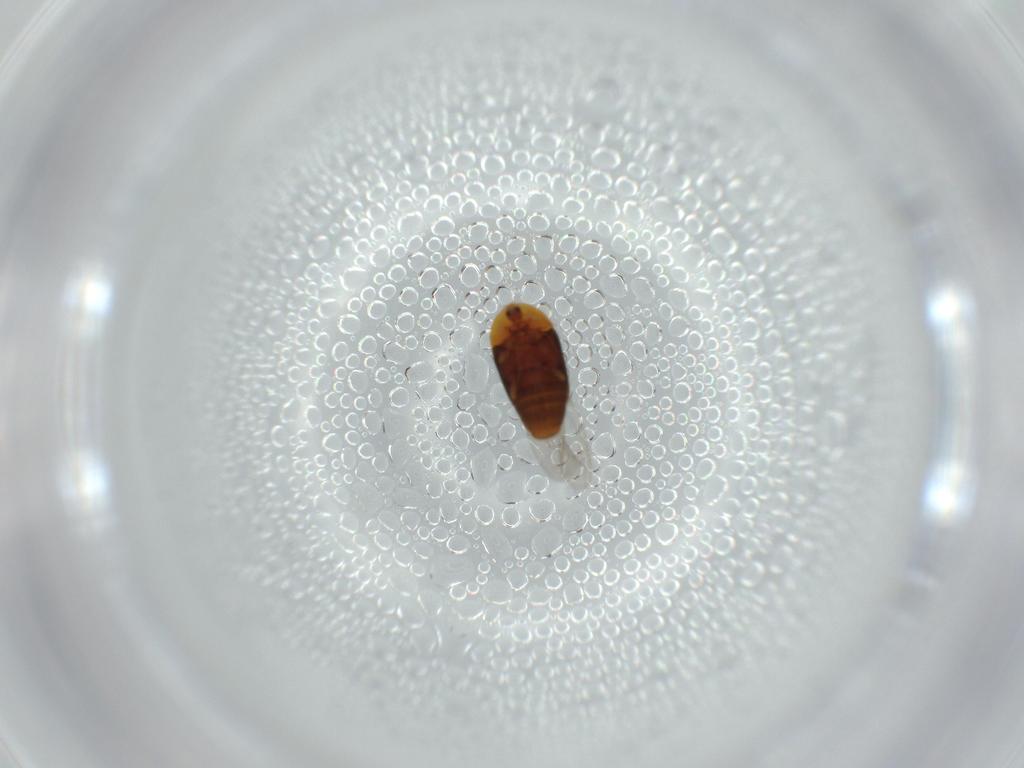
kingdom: Animalia
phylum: Arthropoda
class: Insecta
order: Coleoptera
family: Corylophidae
